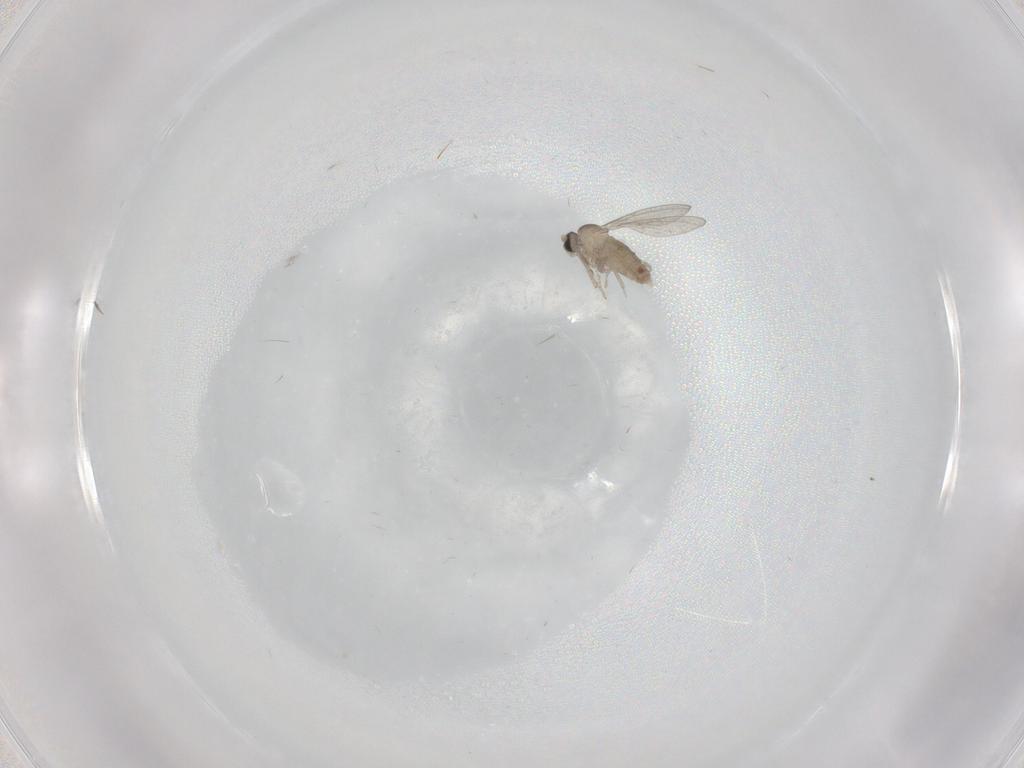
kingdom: Animalia
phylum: Arthropoda
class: Insecta
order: Diptera
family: Cecidomyiidae
